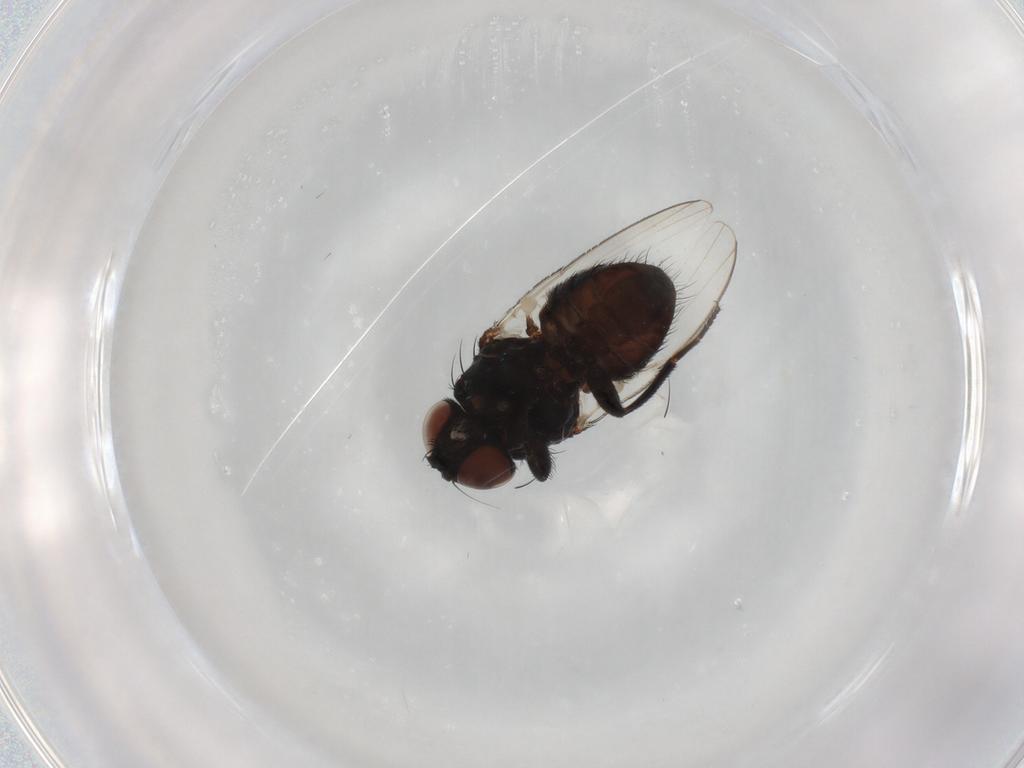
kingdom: Animalia
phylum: Arthropoda
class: Insecta
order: Diptera
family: Milichiidae
